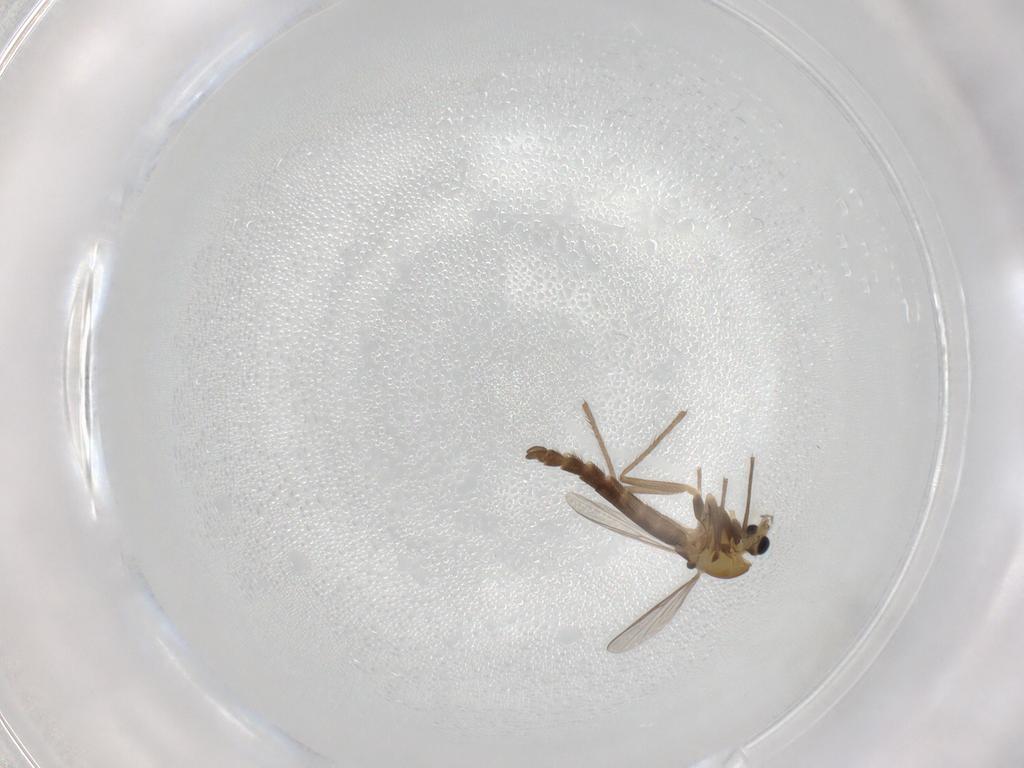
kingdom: Animalia
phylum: Arthropoda
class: Insecta
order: Diptera
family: Chironomidae
